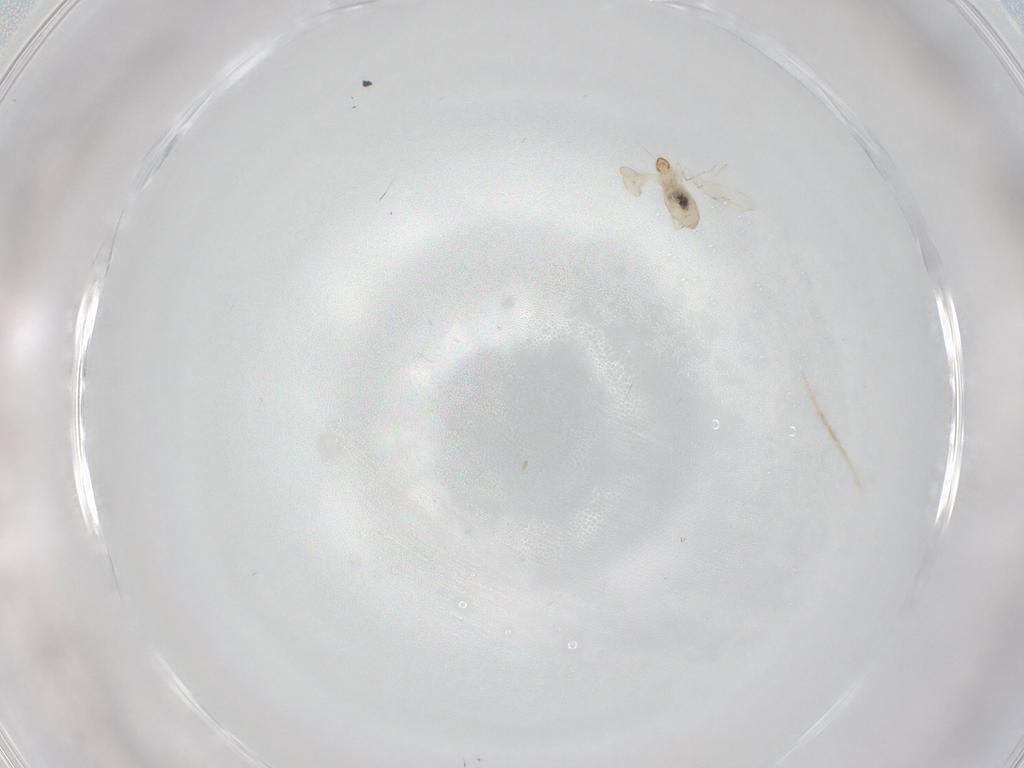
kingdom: Animalia
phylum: Arthropoda
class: Insecta
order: Diptera
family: Cecidomyiidae
